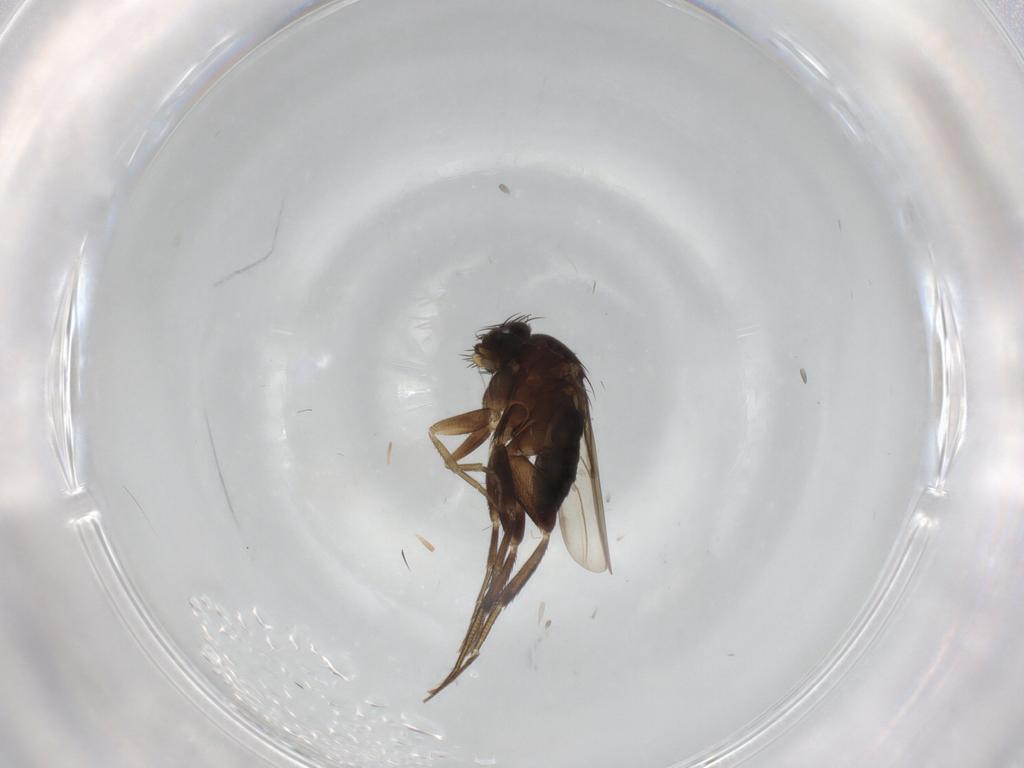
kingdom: Animalia
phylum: Arthropoda
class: Insecta
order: Diptera
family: Phoridae
